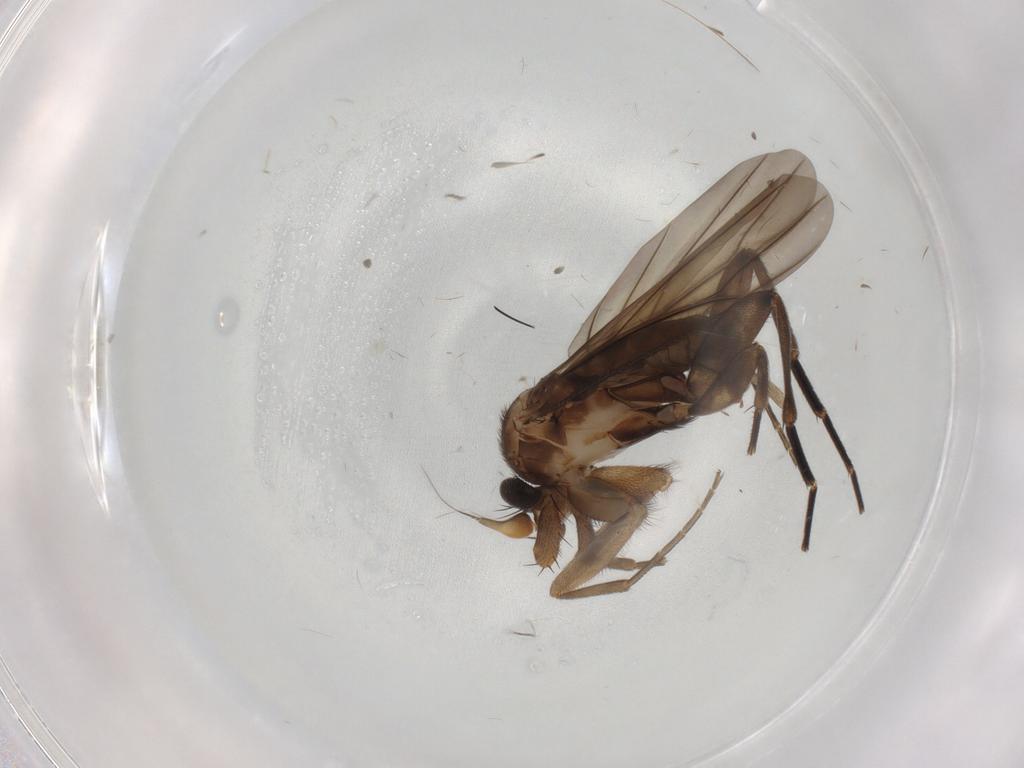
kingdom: Animalia
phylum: Arthropoda
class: Insecta
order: Diptera
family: Phoridae
